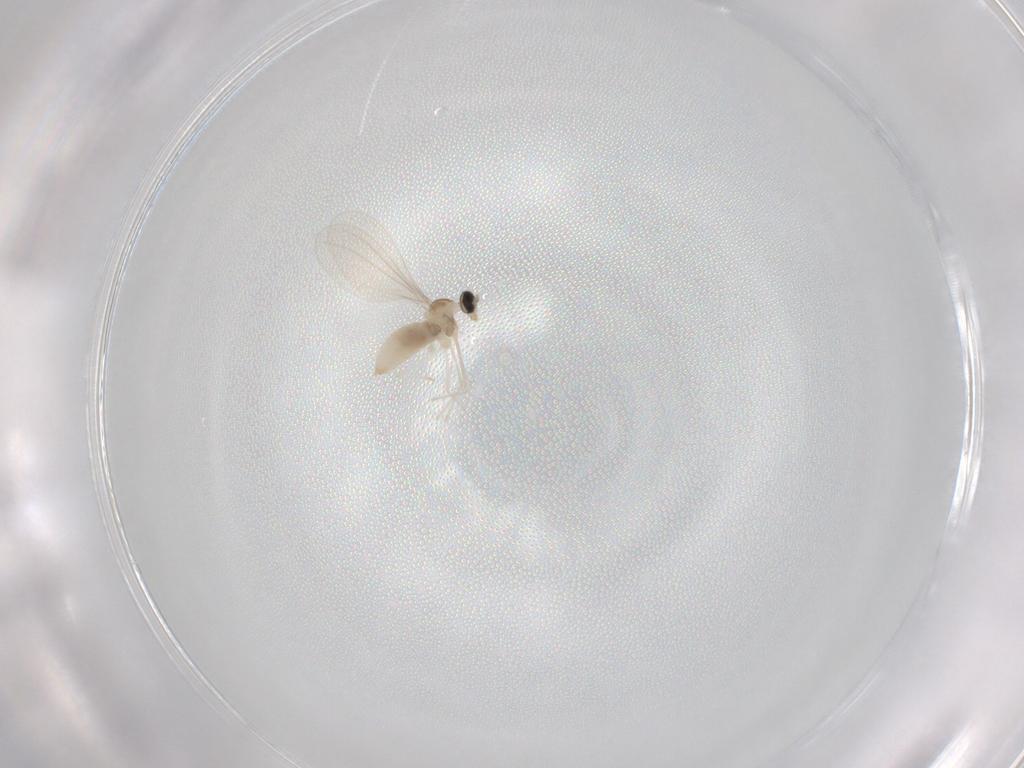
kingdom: Animalia
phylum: Arthropoda
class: Insecta
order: Diptera
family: Cecidomyiidae
